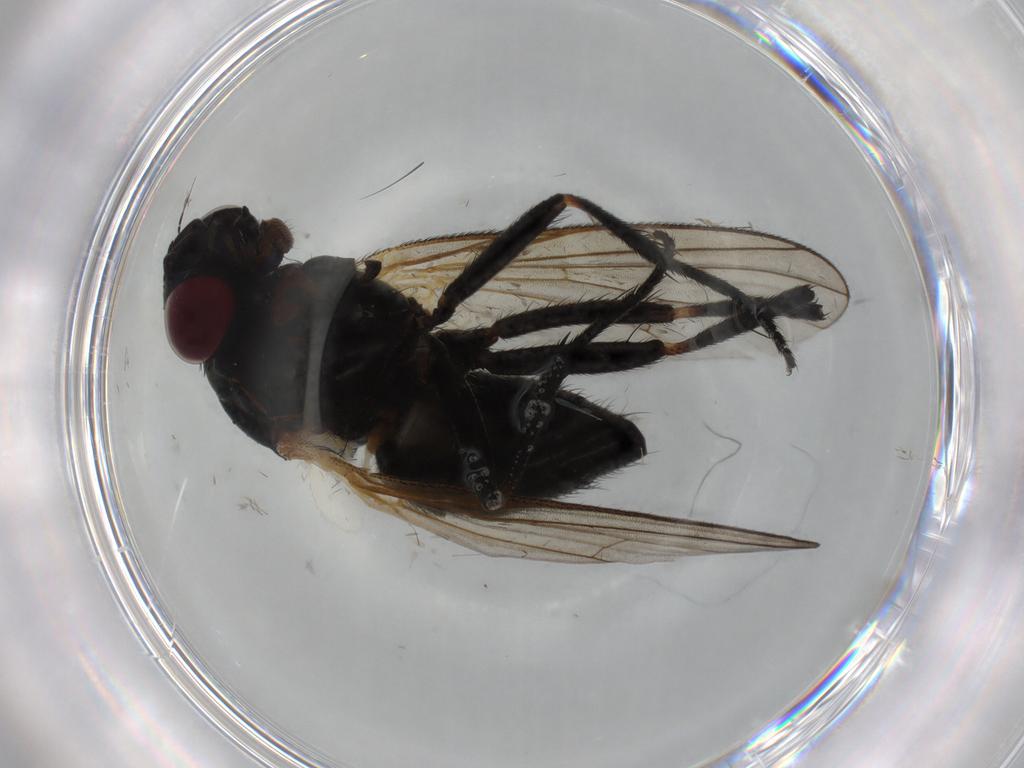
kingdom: Animalia
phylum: Arthropoda
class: Insecta
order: Diptera
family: Fannia
